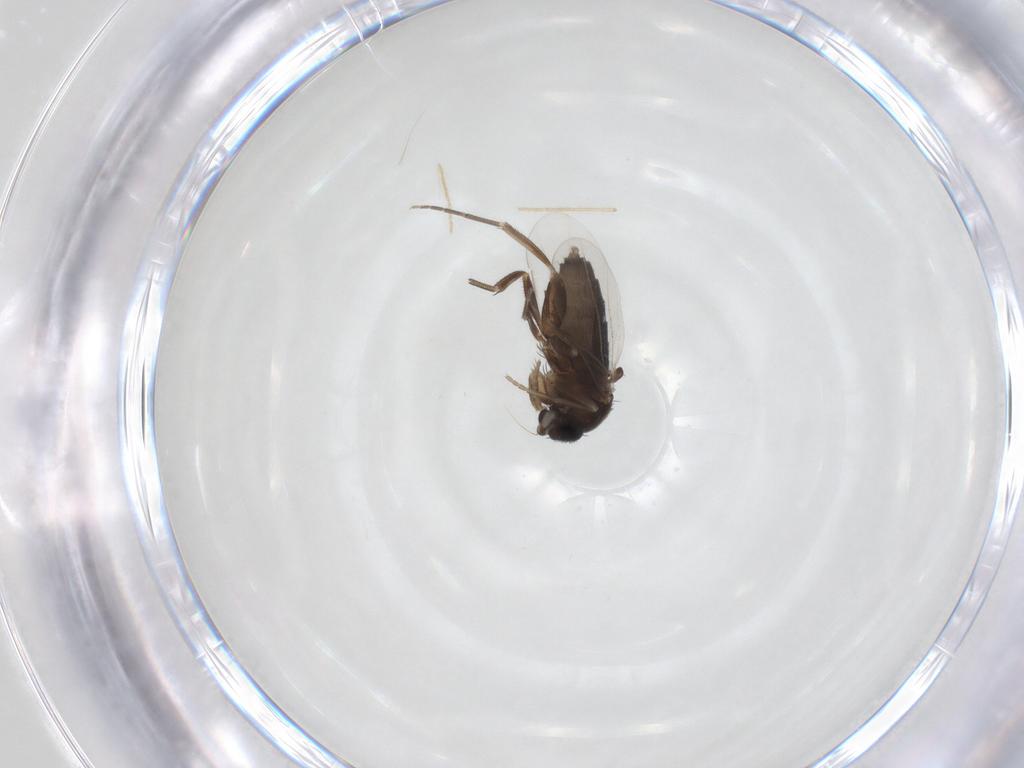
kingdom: Animalia
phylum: Arthropoda
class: Insecta
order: Diptera
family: Phoridae
